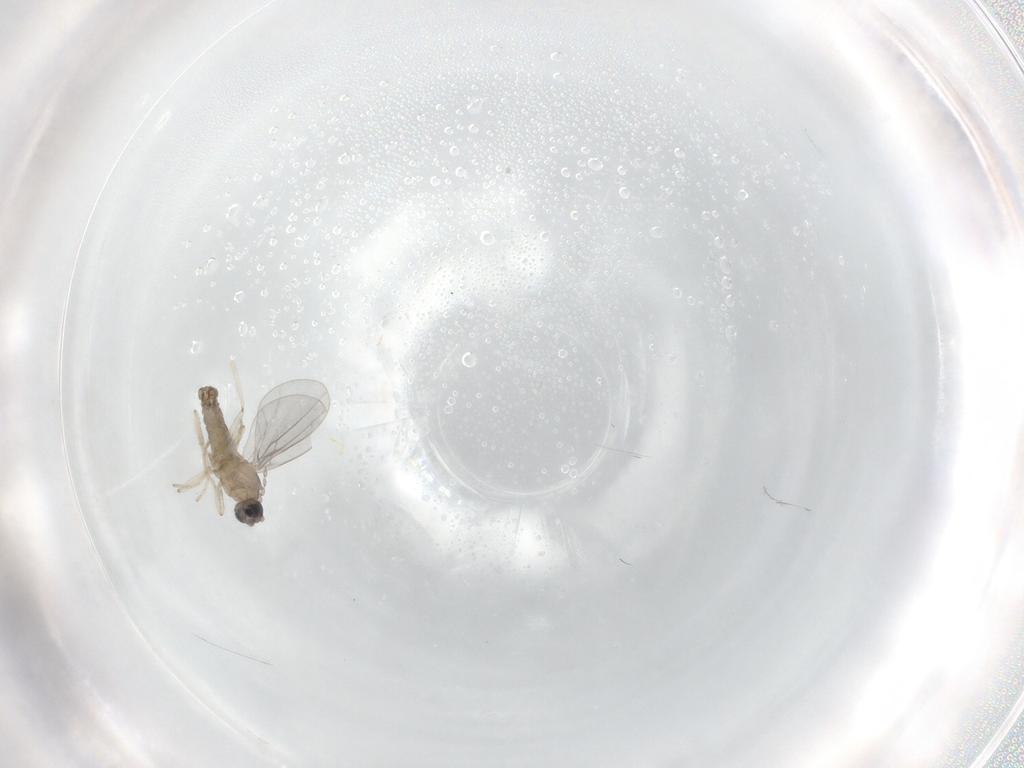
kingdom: Animalia
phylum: Arthropoda
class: Insecta
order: Diptera
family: Cecidomyiidae
